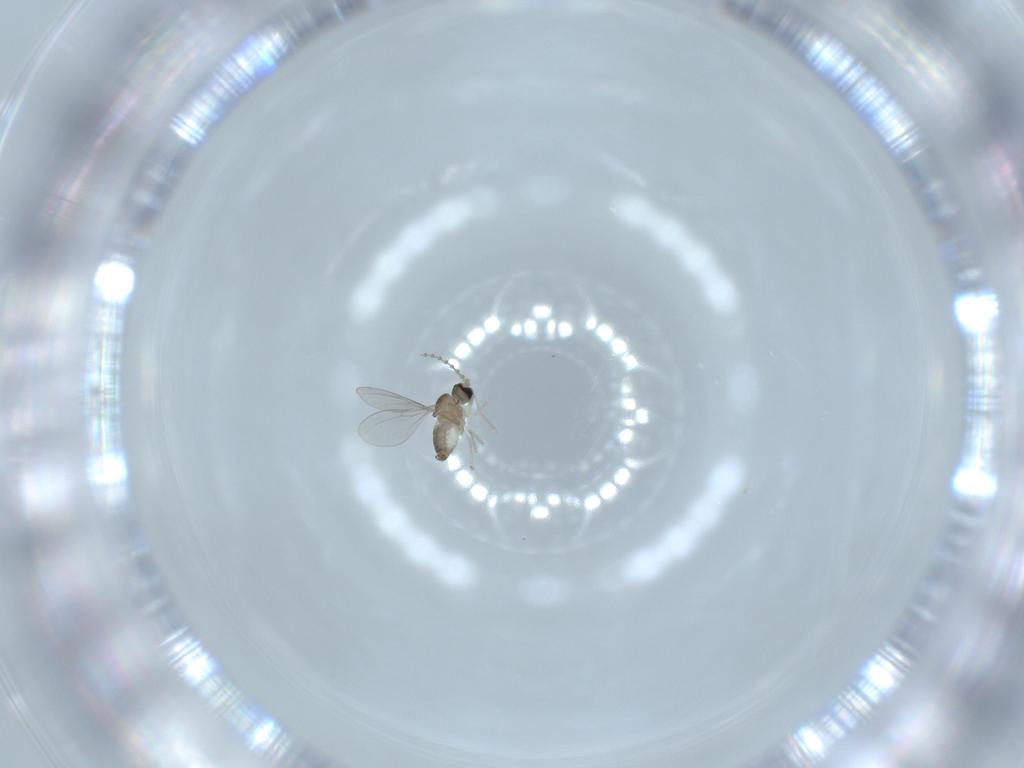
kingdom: Animalia
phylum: Arthropoda
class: Insecta
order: Diptera
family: Cecidomyiidae
